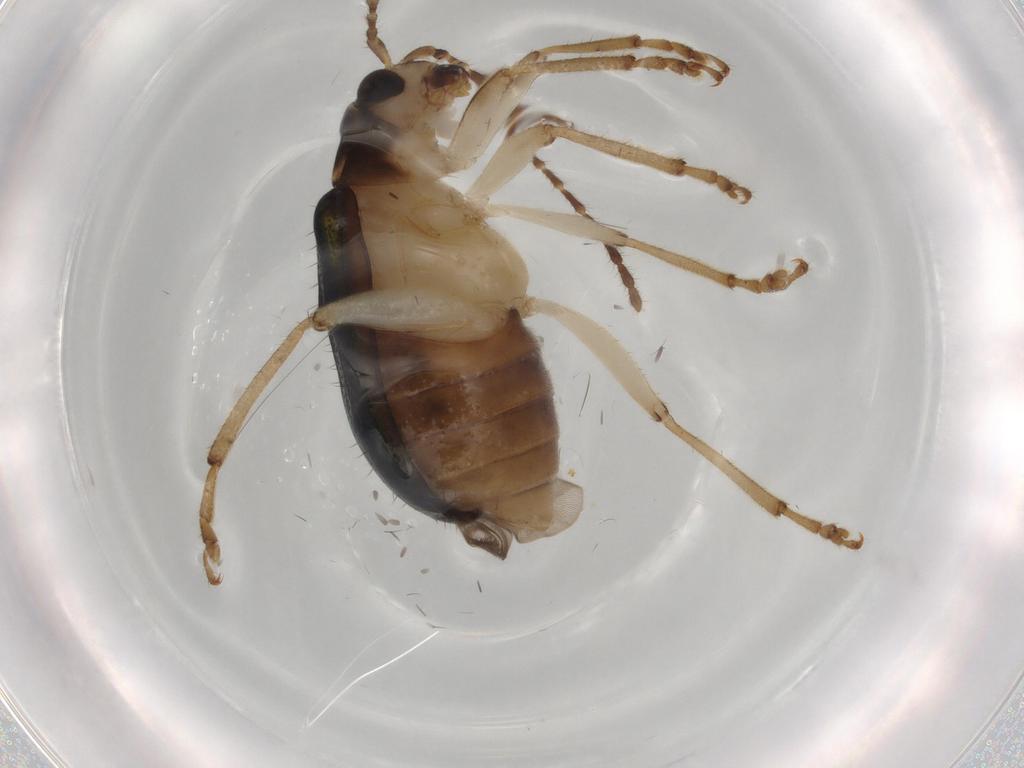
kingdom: Animalia
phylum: Arthropoda
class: Insecta
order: Coleoptera
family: Chrysomelidae
